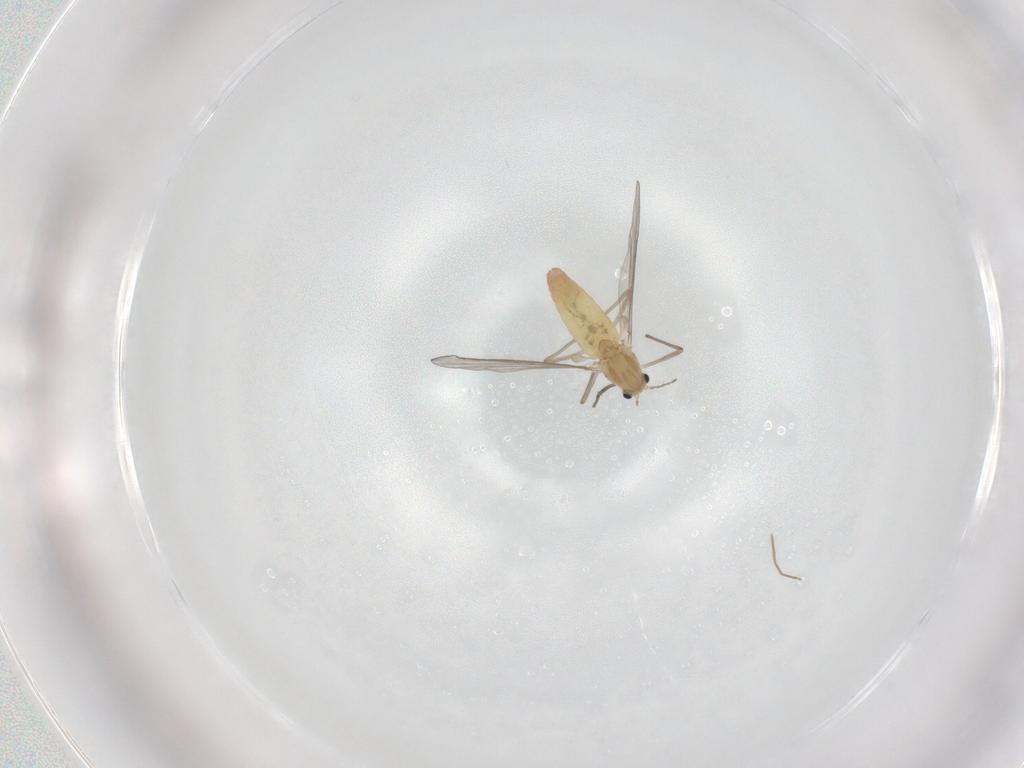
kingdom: Animalia
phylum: Arthropoda
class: Insecta
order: Diptera
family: Chironomidae
